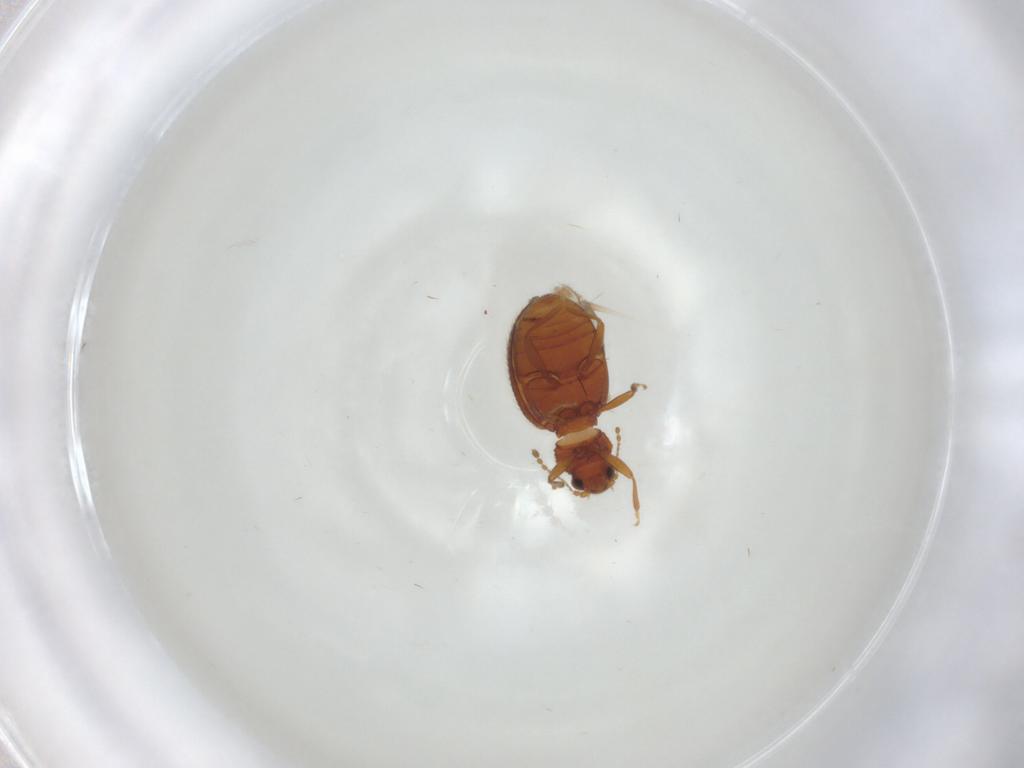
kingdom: Animalia
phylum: Arthropoda
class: Insecta
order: Coleoptera
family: Latridiidae
